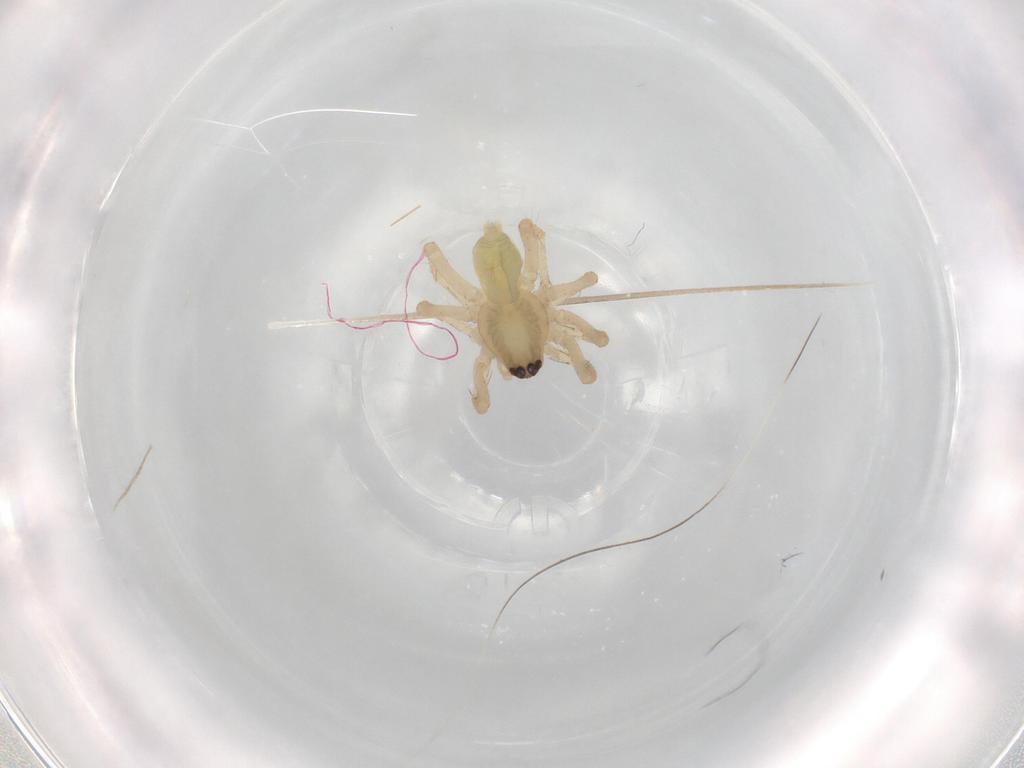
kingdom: Animalia
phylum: Arthropoda
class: Arachnida
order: Araneae
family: Anyphaenidae
